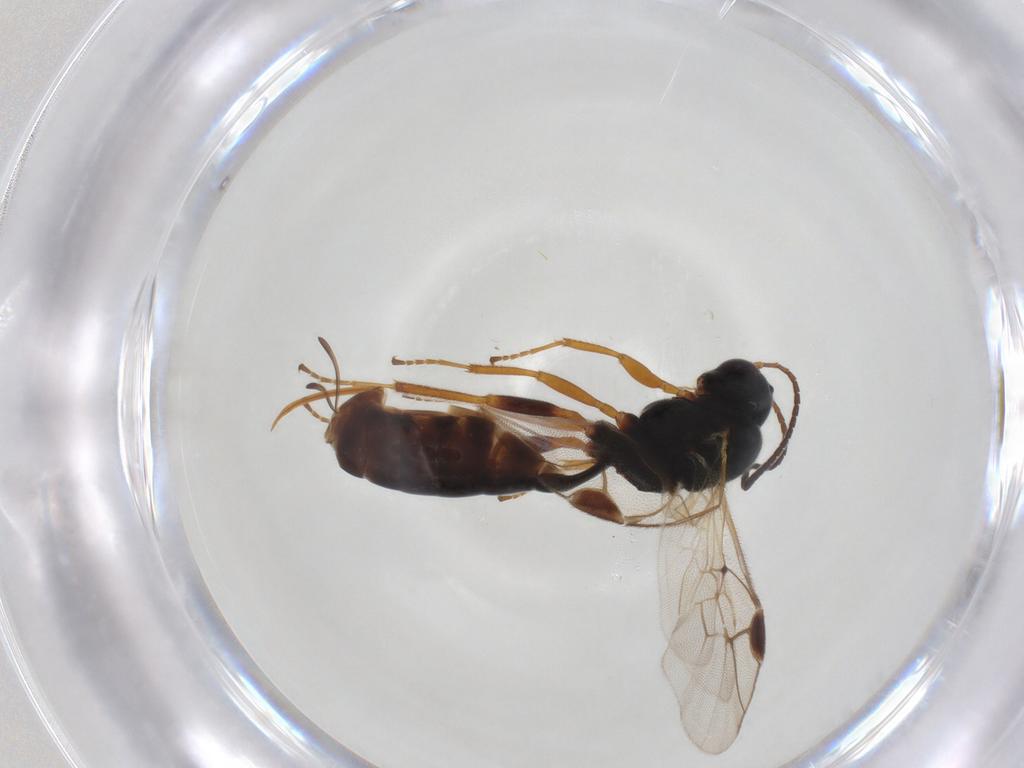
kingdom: Animalia
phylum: Arthropoda
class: Insecta
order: Hymenoptera
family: Ichneumonidae
